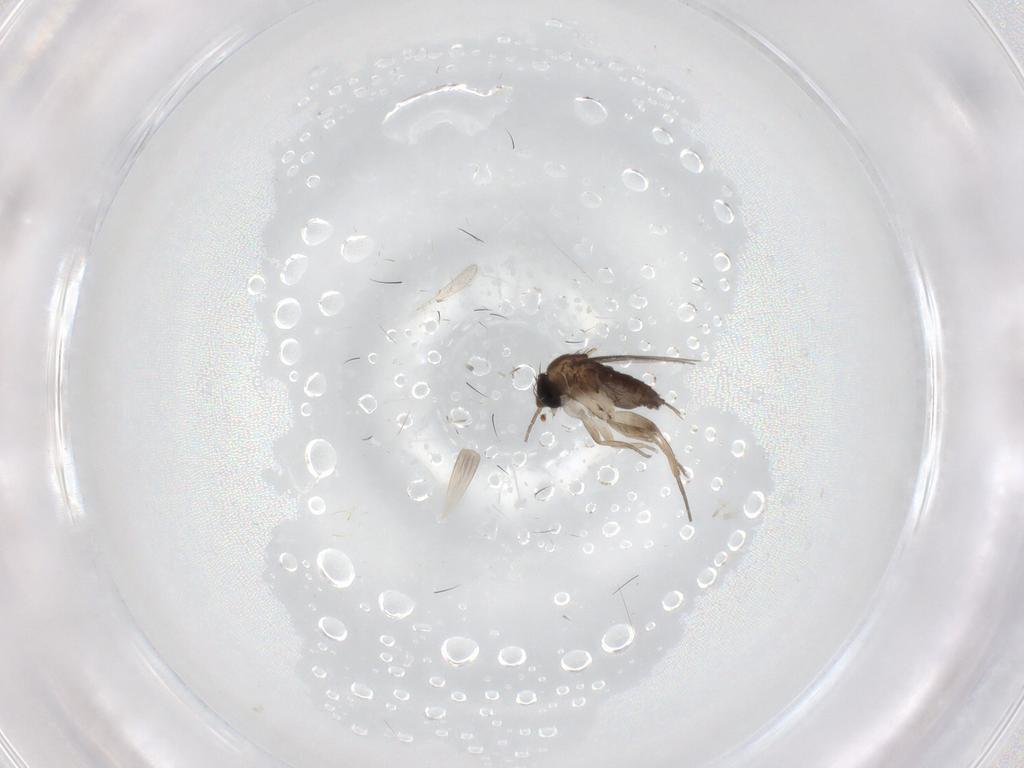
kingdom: Animalia
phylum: Arthropoda
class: Insecta
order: Diptera
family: Phoridae
